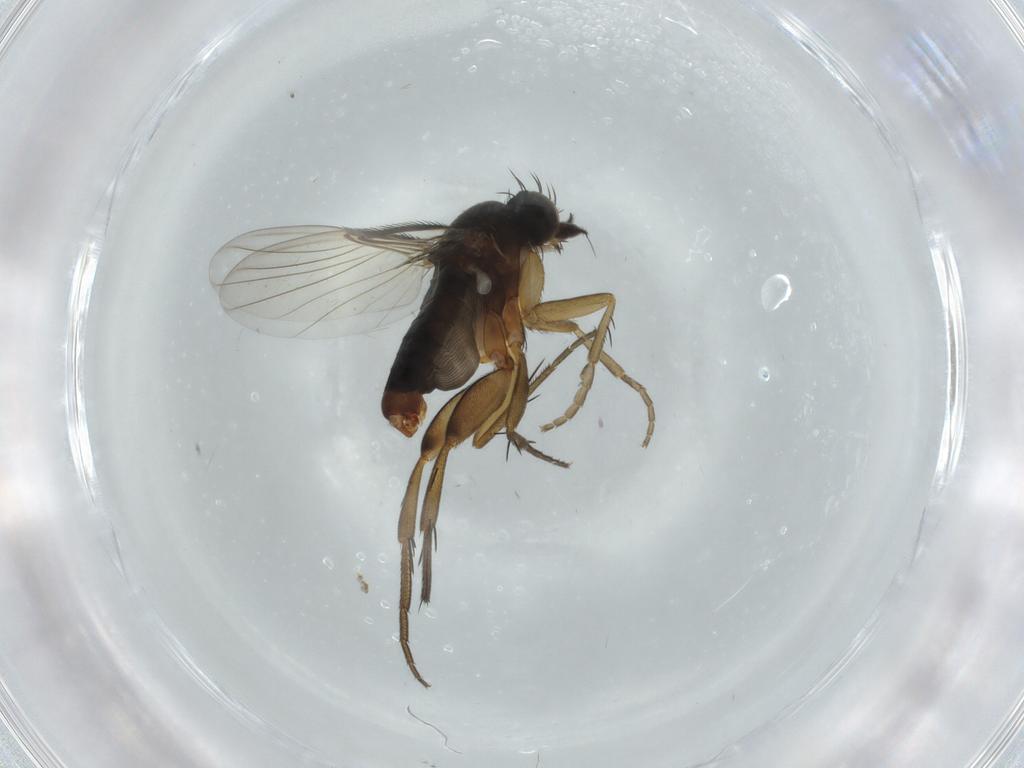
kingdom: Animalia
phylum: Arthropoda
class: Insecta
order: Diptera
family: Phoridae
